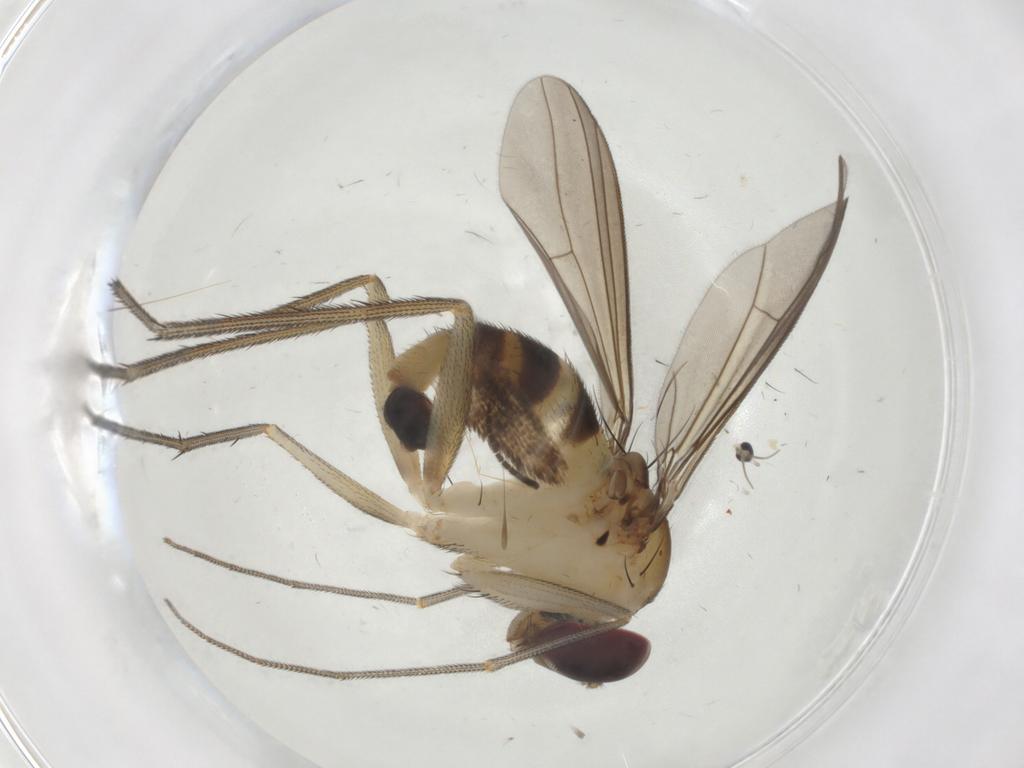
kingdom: Animalia
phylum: Arthropoda
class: Insecta
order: Diptera
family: Dolichopodidae
